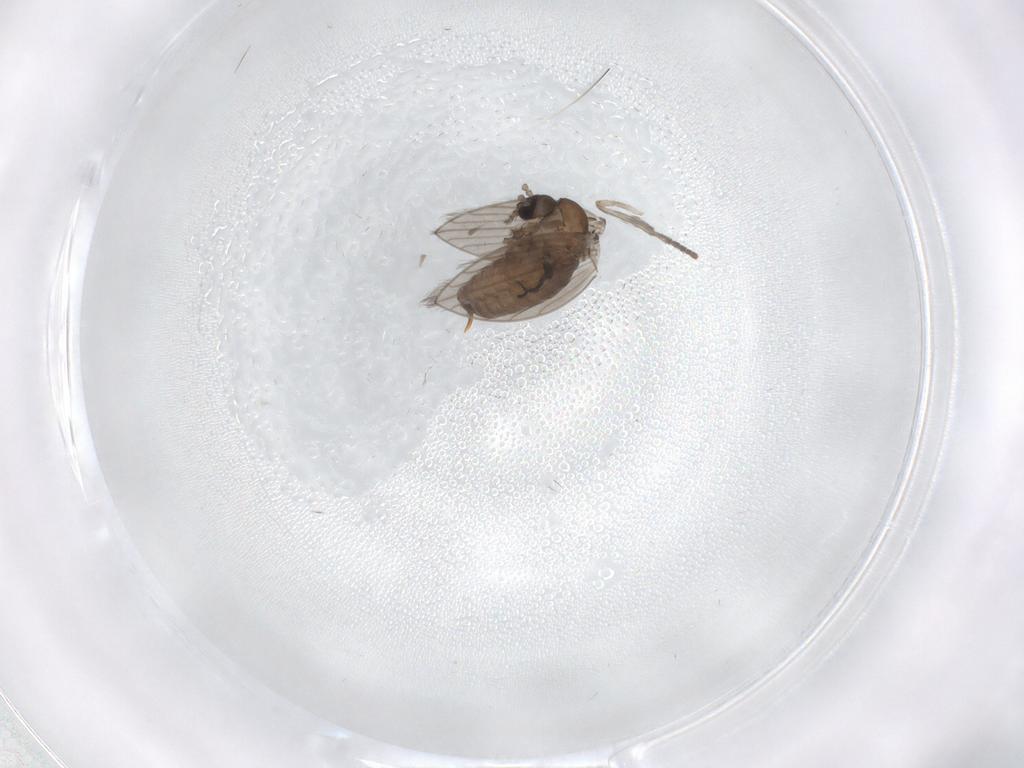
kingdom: Animalia
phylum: Arthropoda
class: Insecta
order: Diptera
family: Psychodidae
